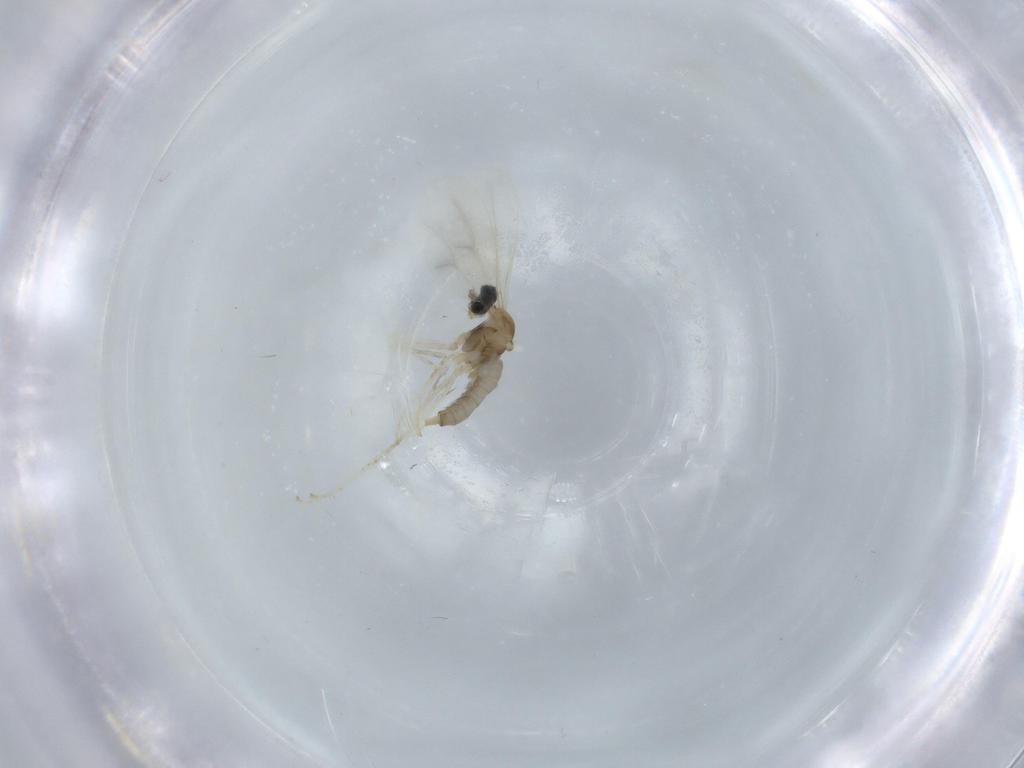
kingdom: Animalia
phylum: Arthropoda
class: Insecta
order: Diptera
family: Cecidomyiidae
